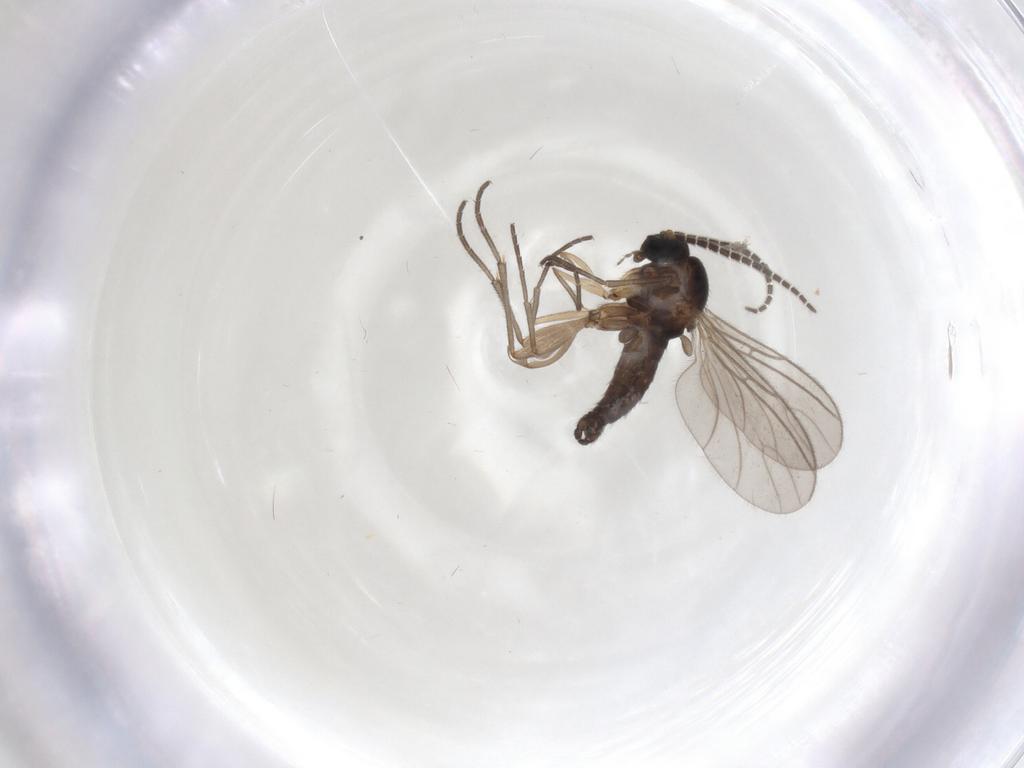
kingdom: Animalia
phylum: Arthropoda
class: Insecta
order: Diptera
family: Sciaridae
